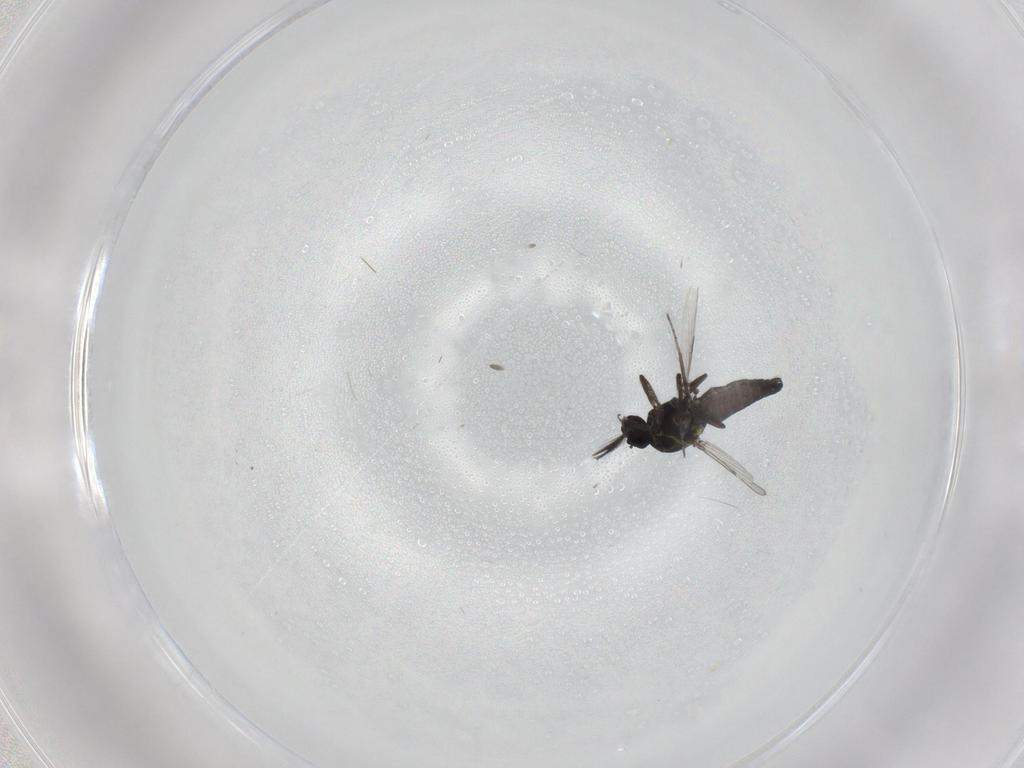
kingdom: Animalia
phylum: Arthropoda
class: Insecta
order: Diptera
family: Ceratopogonidae
